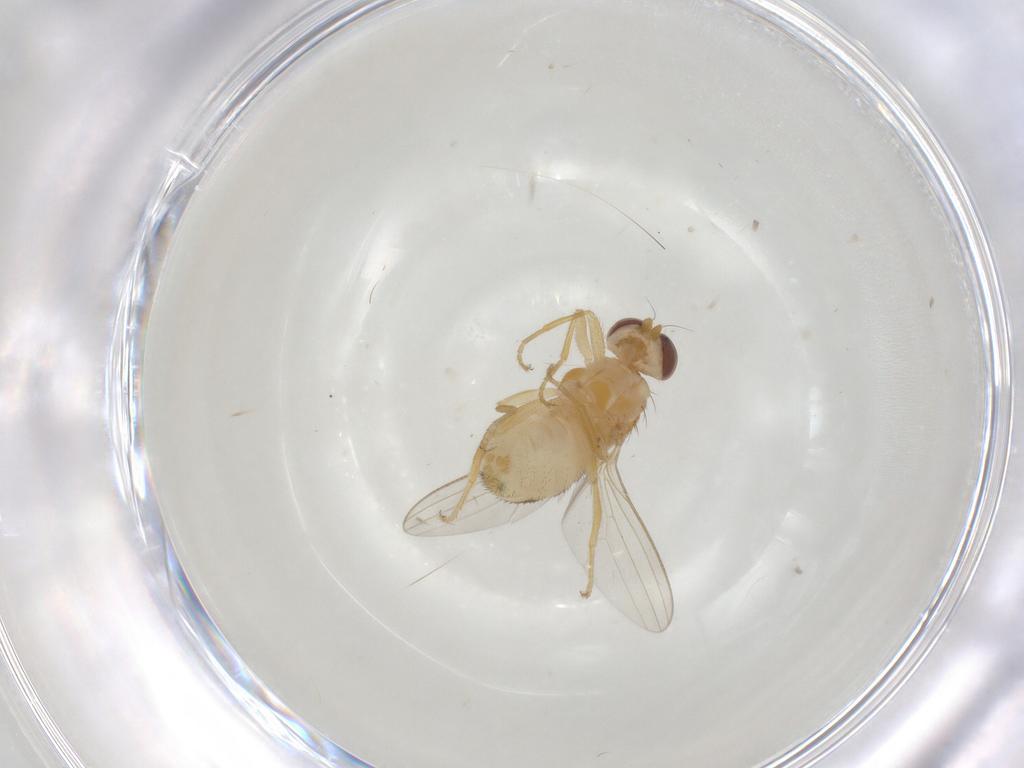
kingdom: Animalia
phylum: Arthropoda
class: Insecta
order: Diptera
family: Chyromyidae
